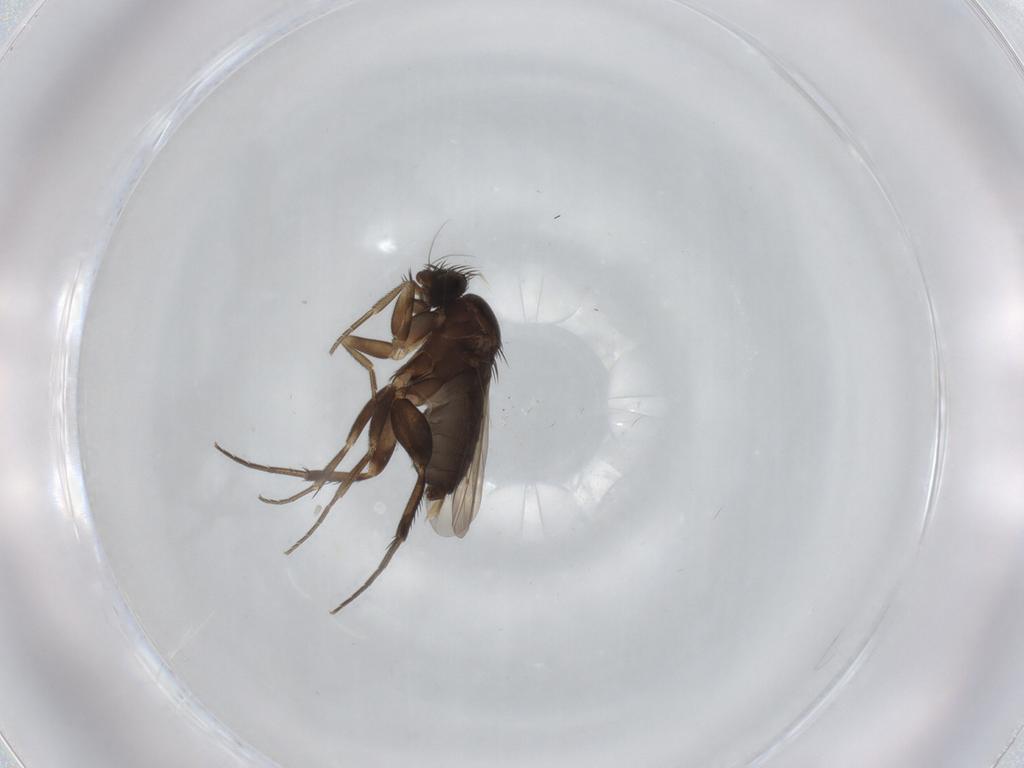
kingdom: Animalia
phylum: Arthropoda
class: Insecta
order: Diptera
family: Phoridae
